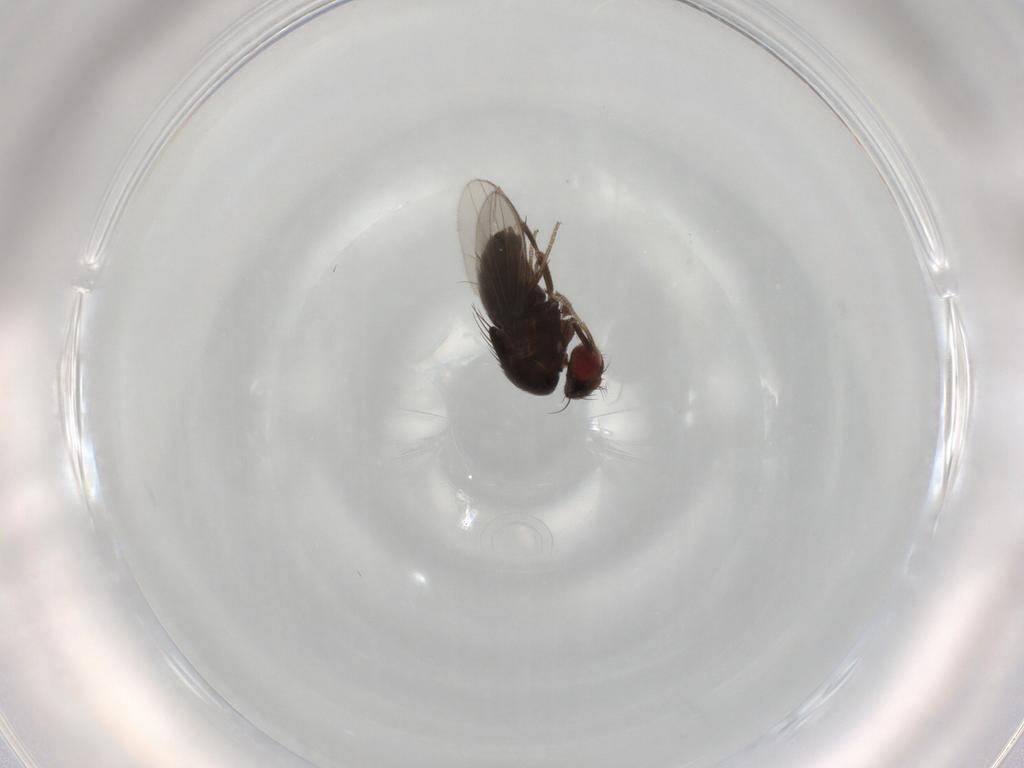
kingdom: Animalia
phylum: Arthropoda
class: Insecta
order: Diptera
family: Drosophilidae
